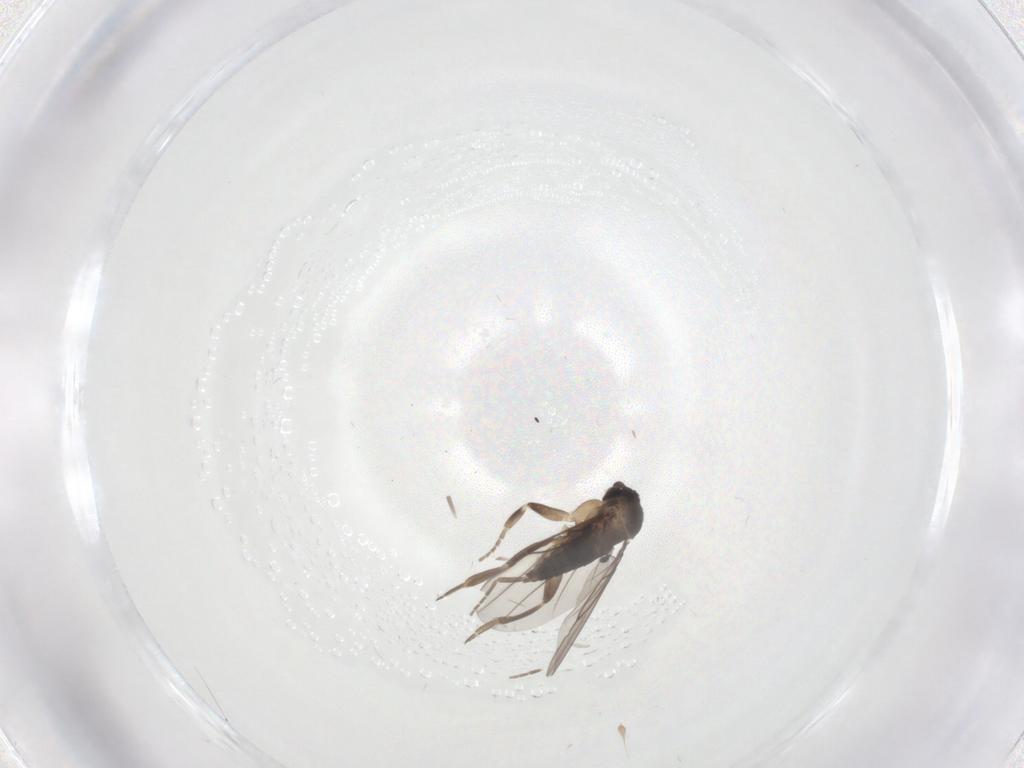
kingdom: Animalia
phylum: Arthropoda
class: Insecta
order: Diptera
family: Phoridae
